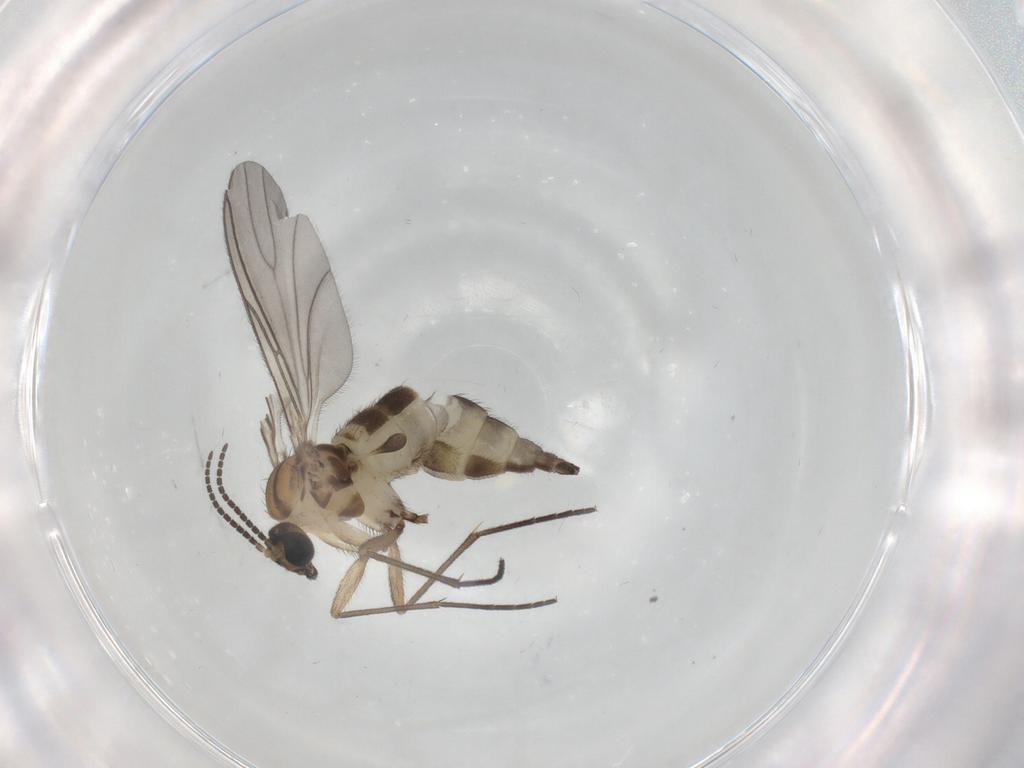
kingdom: Animalia
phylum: Arthropoda
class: Insecta
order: Diptera
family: Sciaridae
